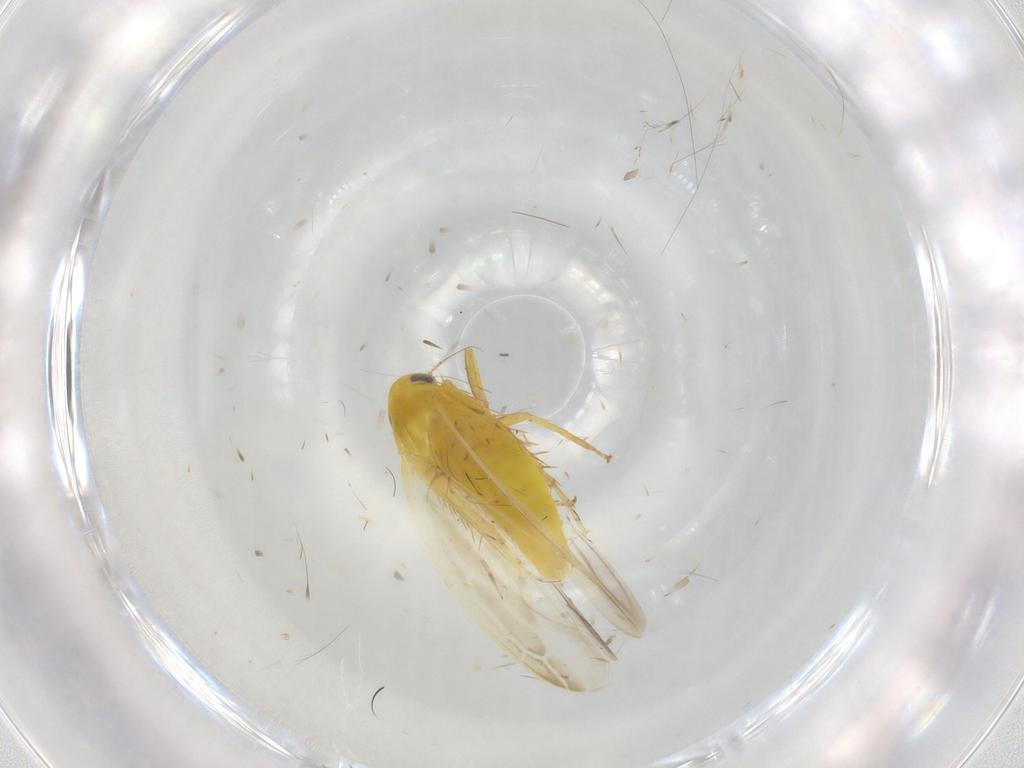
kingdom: Animalia
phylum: Arthropoda
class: Insecta
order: Hemiptera
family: Cicadellidae
